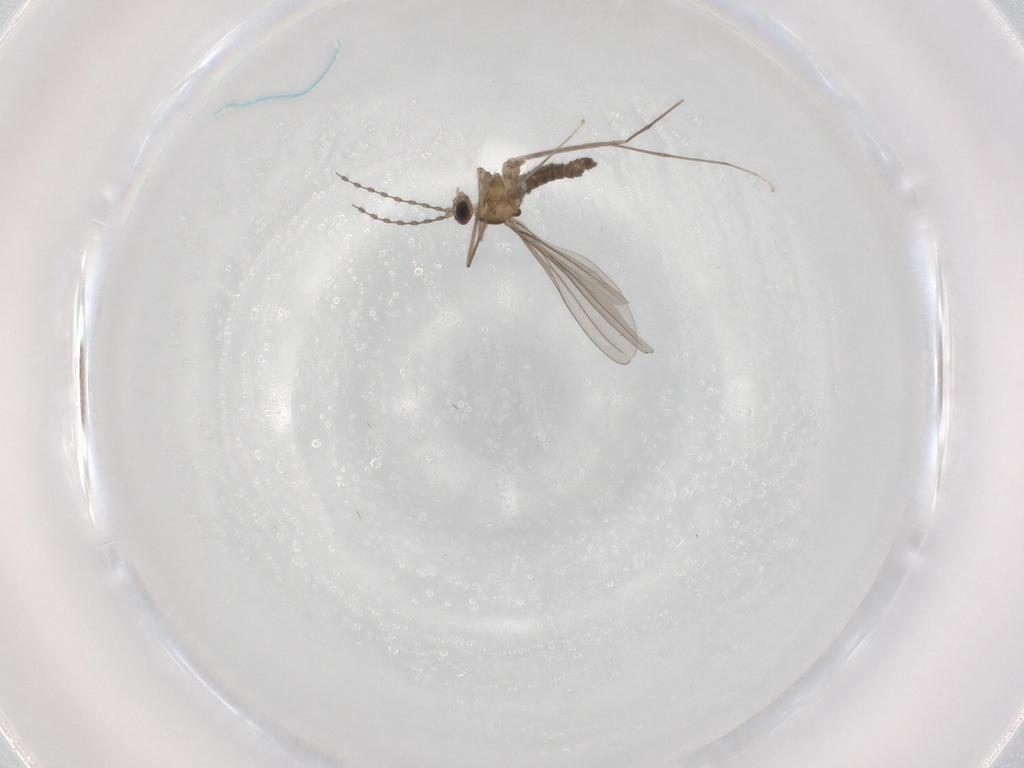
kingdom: Animalia
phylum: Arthropoda
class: Insecta
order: Diptera
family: Cecidomyiidae
